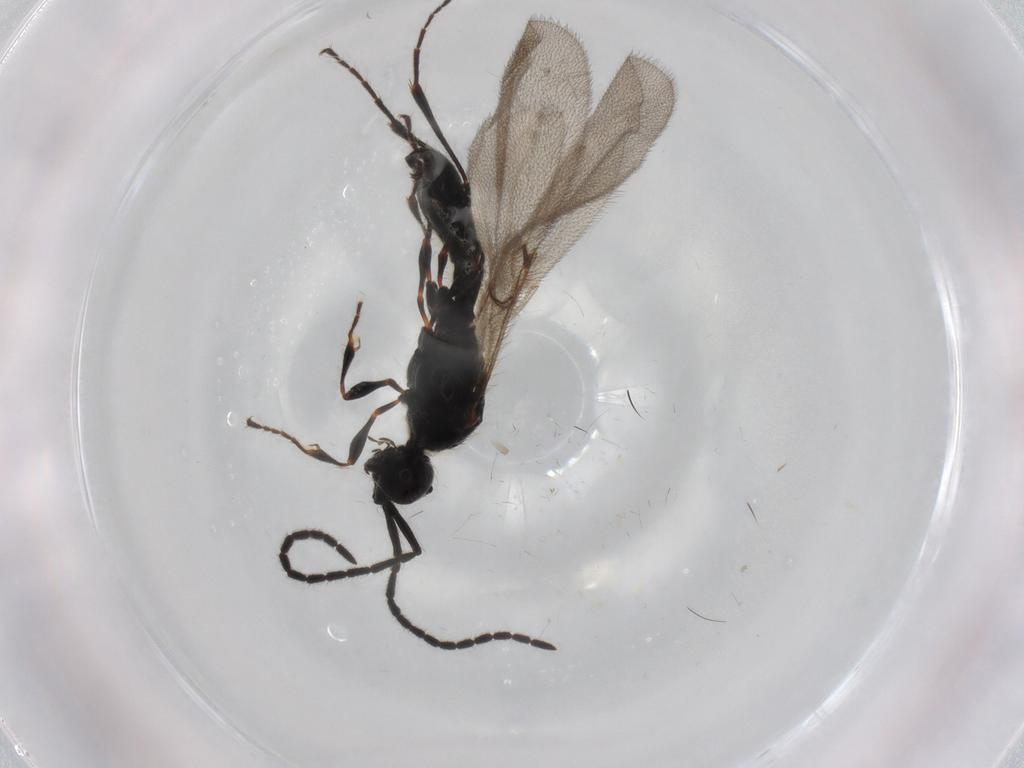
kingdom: Animalia
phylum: Arthropoda
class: Insecta
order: Hymenoptera
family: Diapriidae
